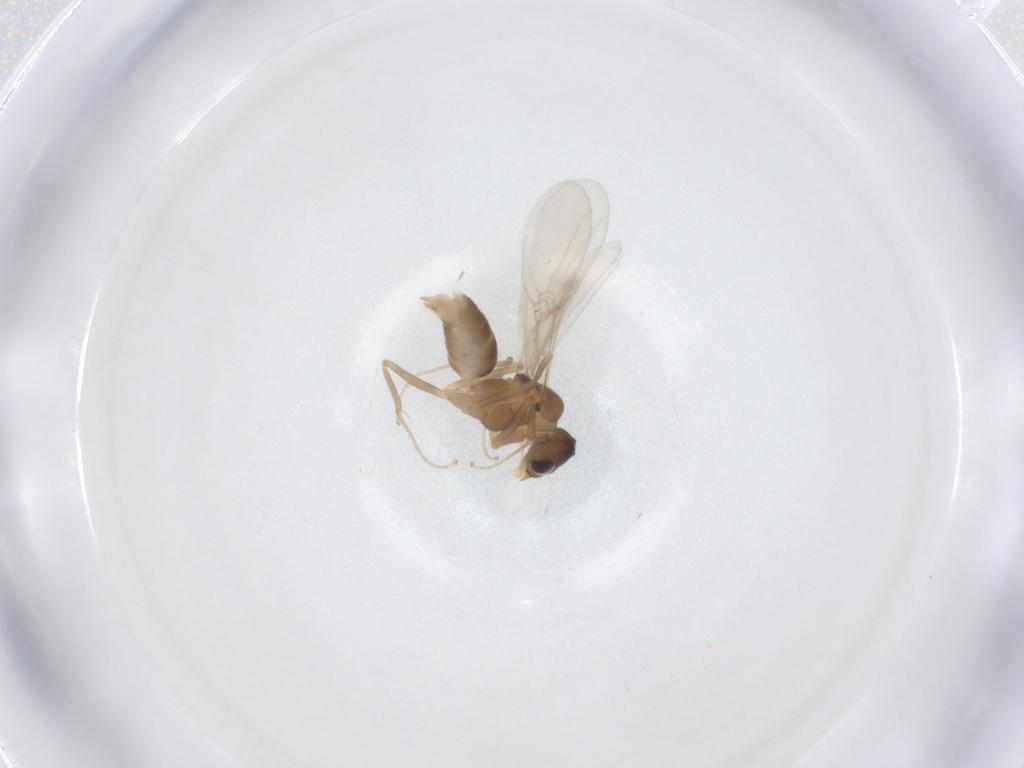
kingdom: Animalia
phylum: Arthropoda
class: Insecta
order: Hymenoptera
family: Formicidae
